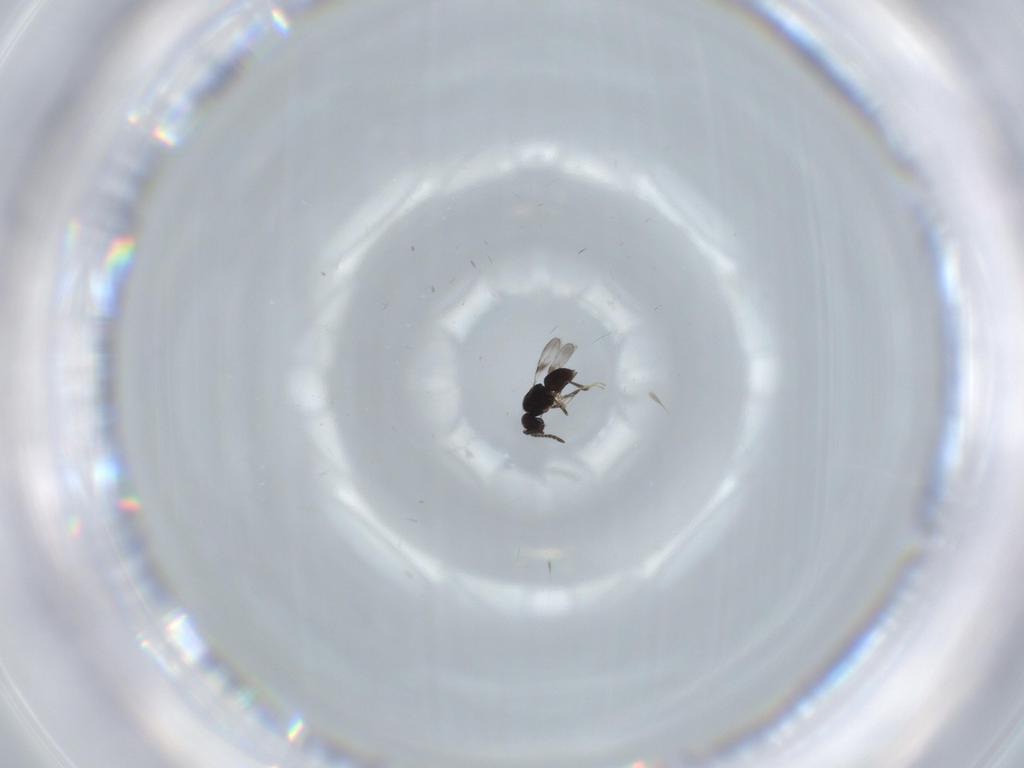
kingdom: Animalia
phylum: Arthropoda
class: Insecta
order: Hymenoptera
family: Ceraphronidae
